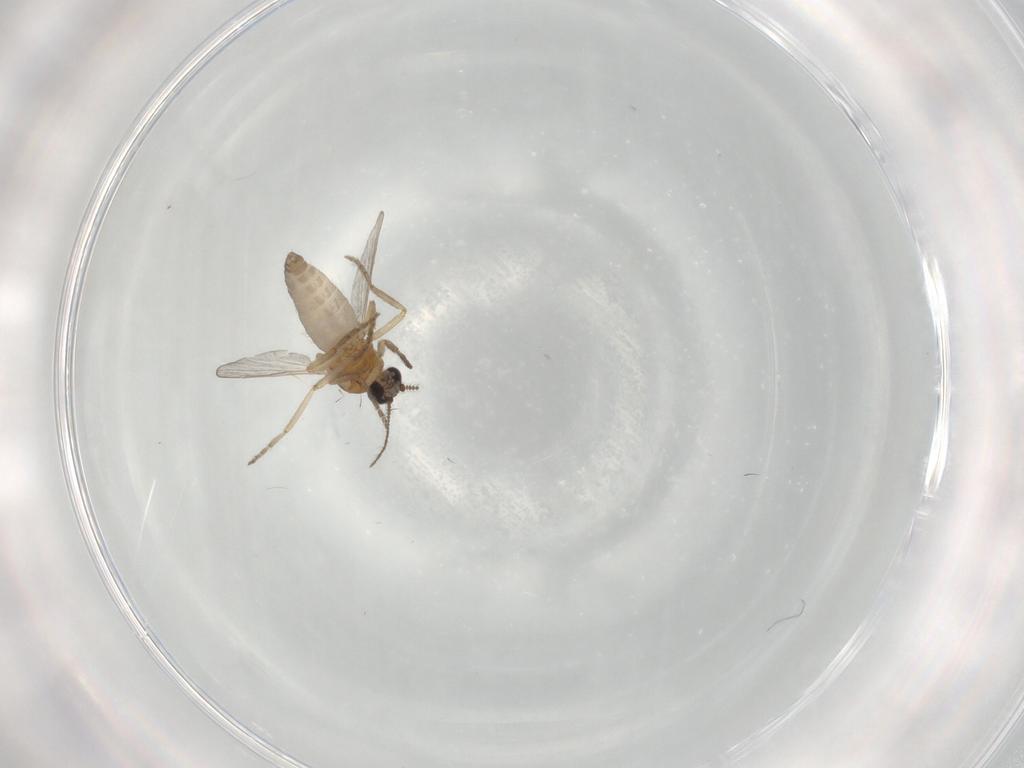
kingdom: Animalia
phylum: Arthropoda
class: Insecta
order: Diptera
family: Ceratopogonidae
